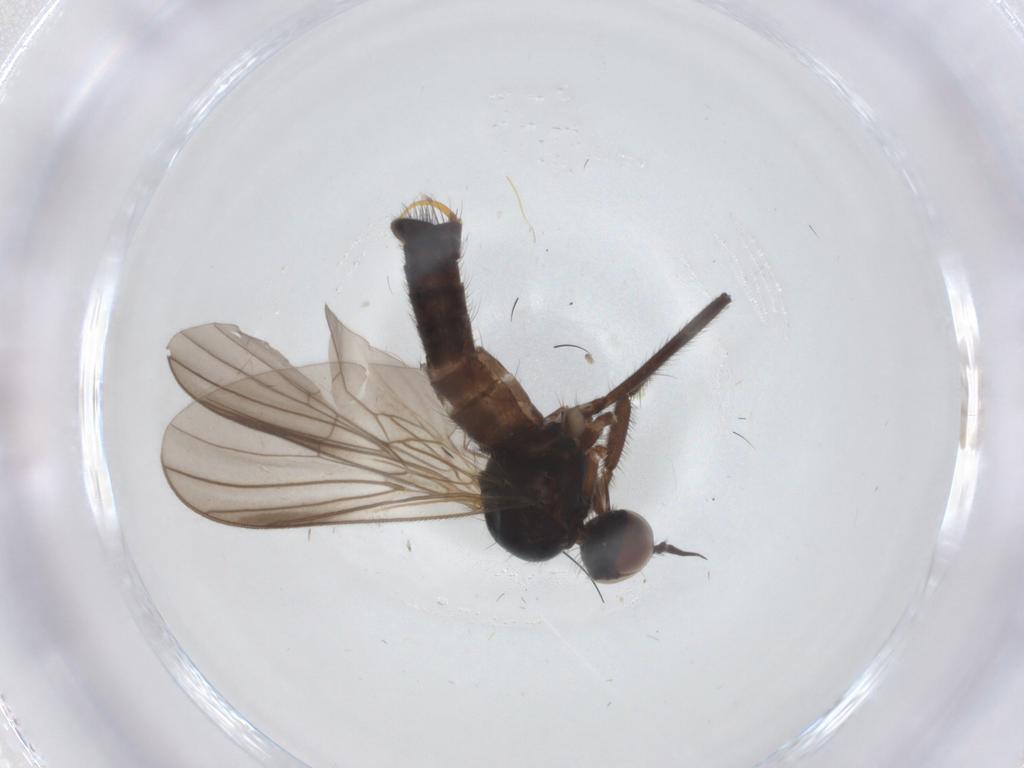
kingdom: Animalia
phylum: Arthropoda
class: Insecta
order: Diptera
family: Empididae
